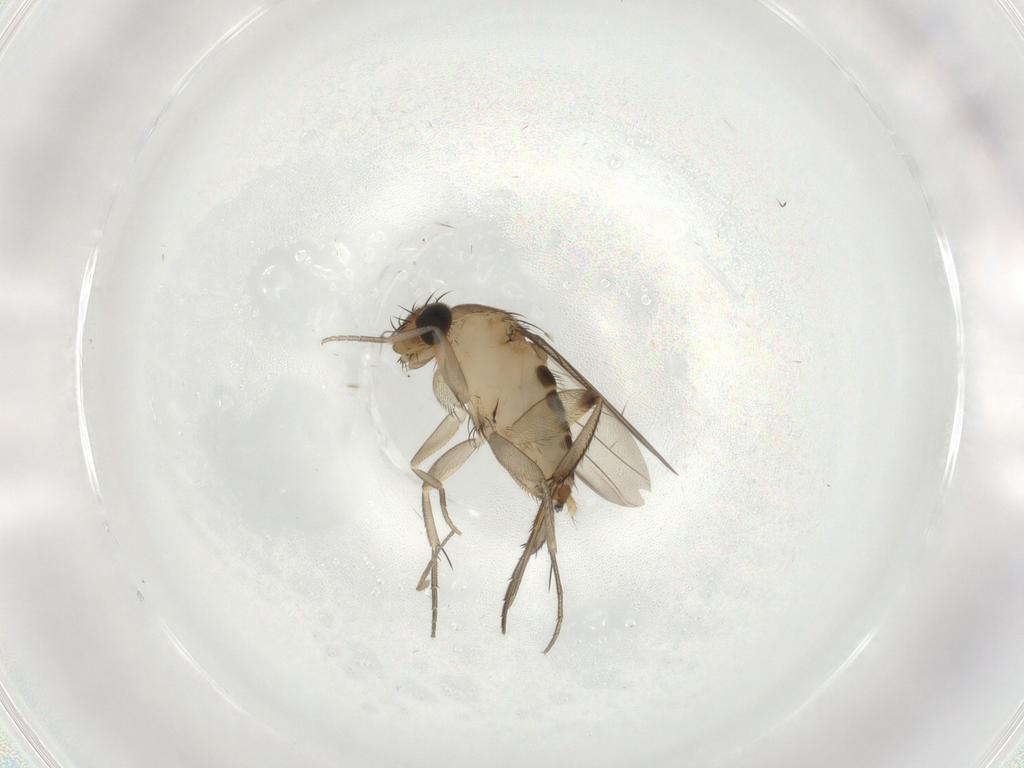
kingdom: Animalia
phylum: Arthropoda
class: Insecta
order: Diptera
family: Phoridae
